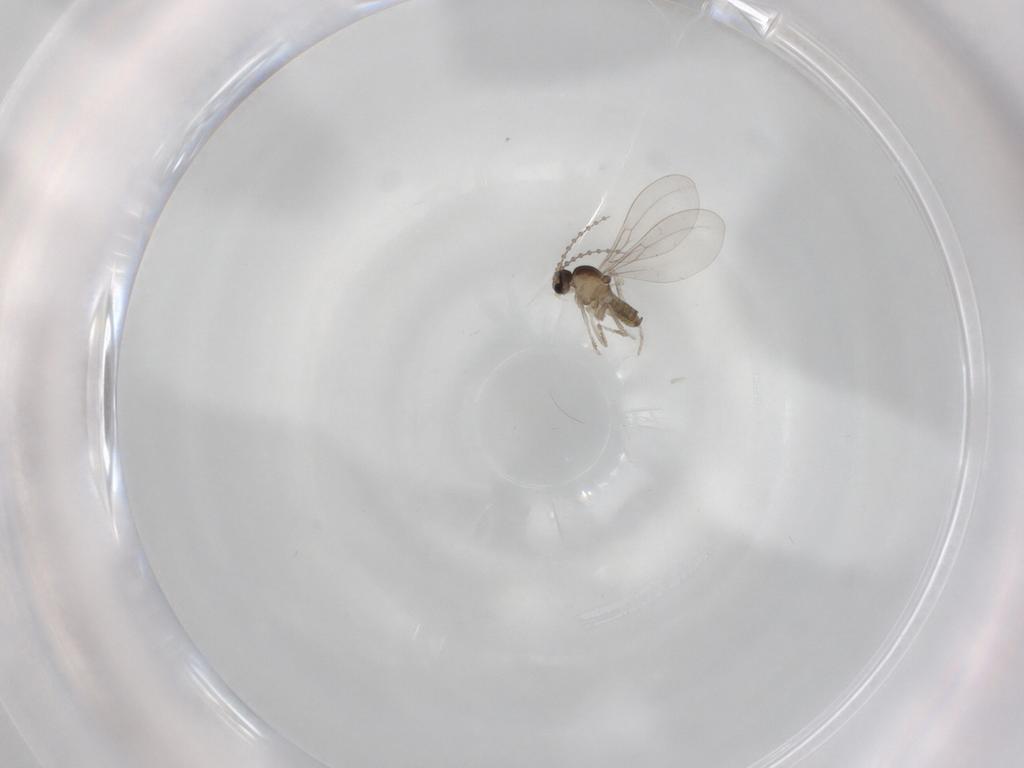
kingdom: Animalia
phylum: Arthropoda
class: Insecta
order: Diptera
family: Cecidomyiidae
